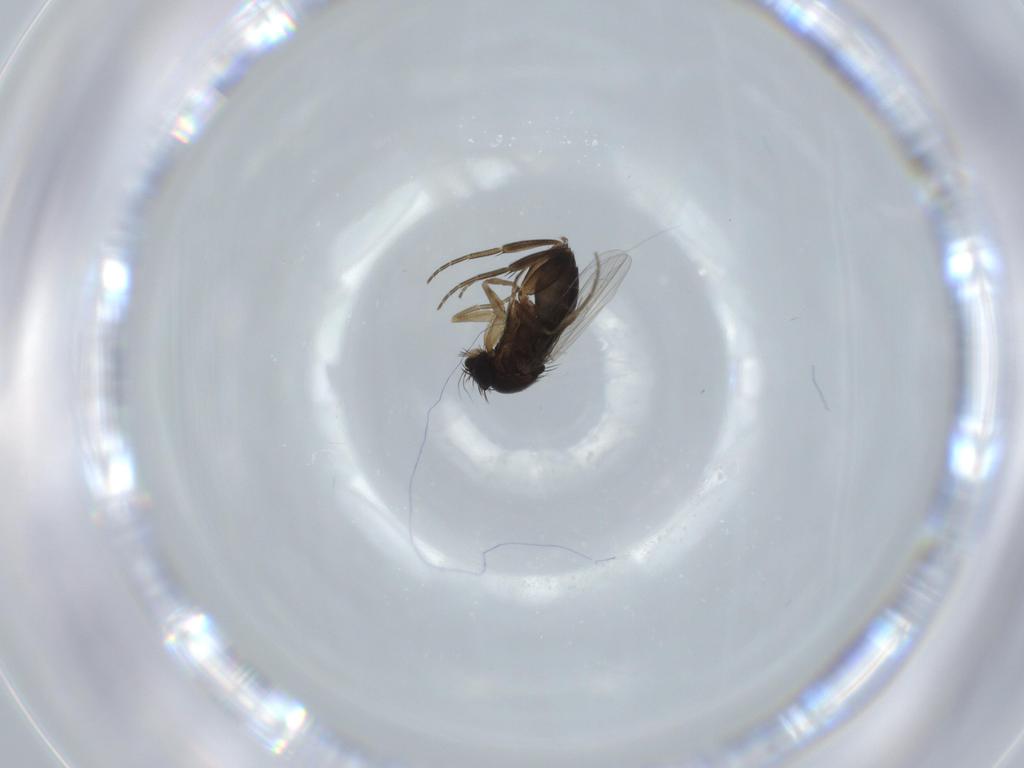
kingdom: Animalia
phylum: Arthropoda
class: Insecta
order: Diptera
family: Phoridae
